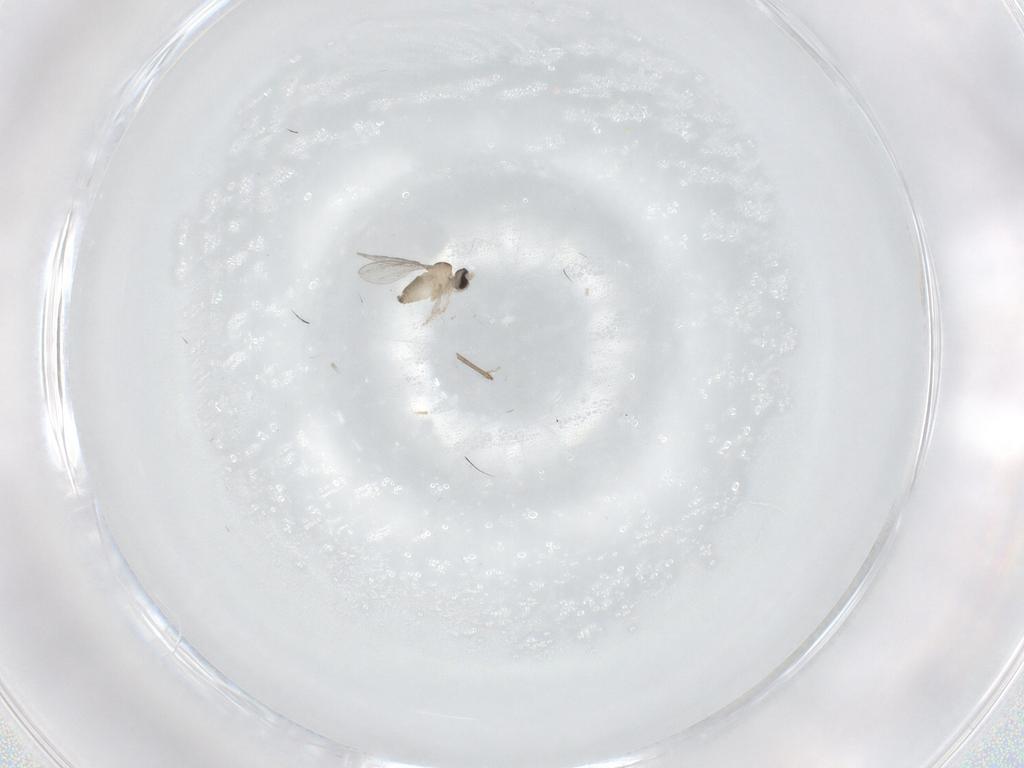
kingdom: Animalia
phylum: Arthropoda
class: Insecta
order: Diptera
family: Cecidomyiidae
